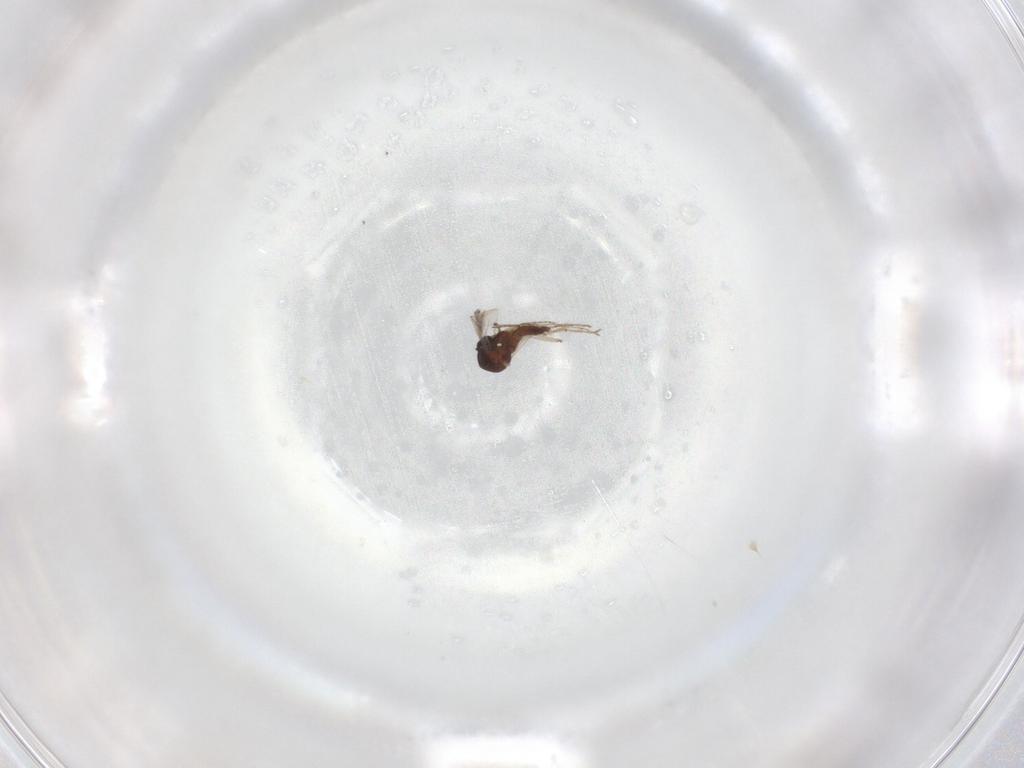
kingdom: Animalia
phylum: Arthropoda
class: Insecta
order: Diptera
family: Ceratopogonidae
